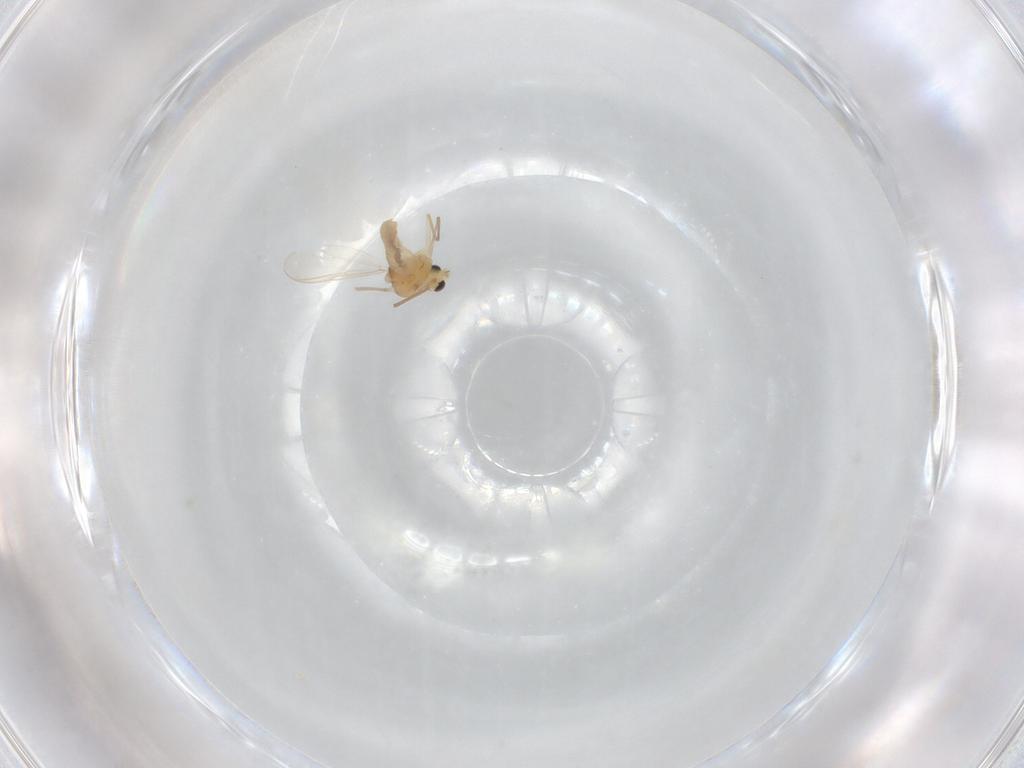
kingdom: Animalia
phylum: Arthropoda
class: Insecta
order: Diptera
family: Chironomidae
